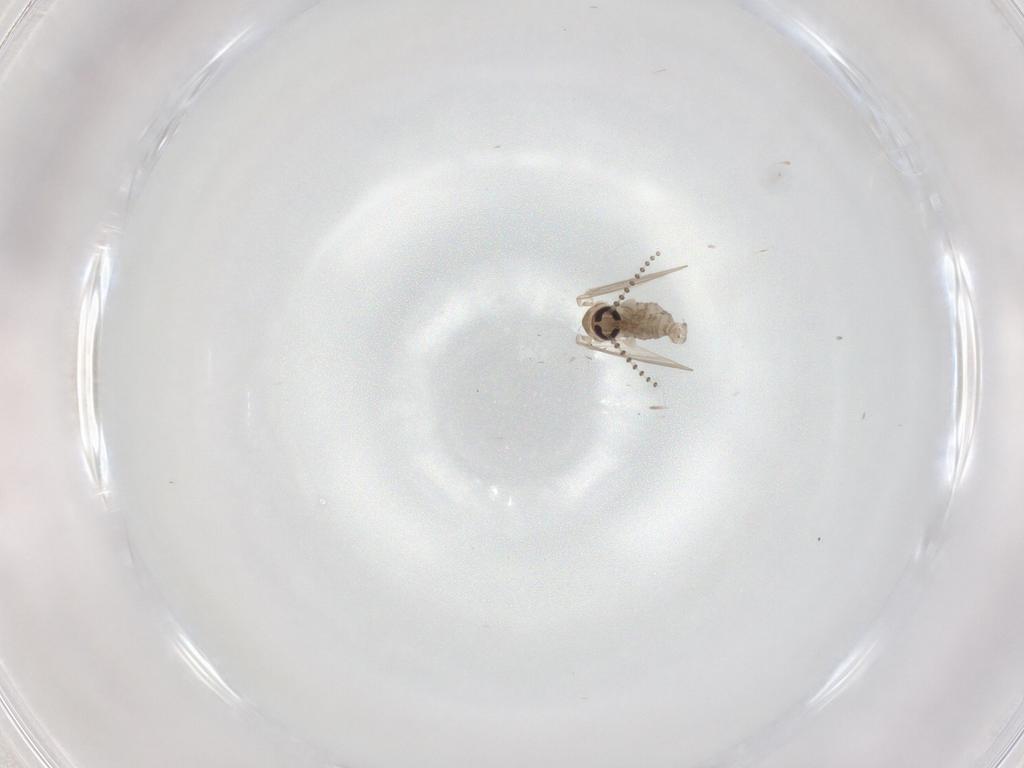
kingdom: Animalia
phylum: Arthropoda
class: Insecta
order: Diptera
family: Psychodidae
